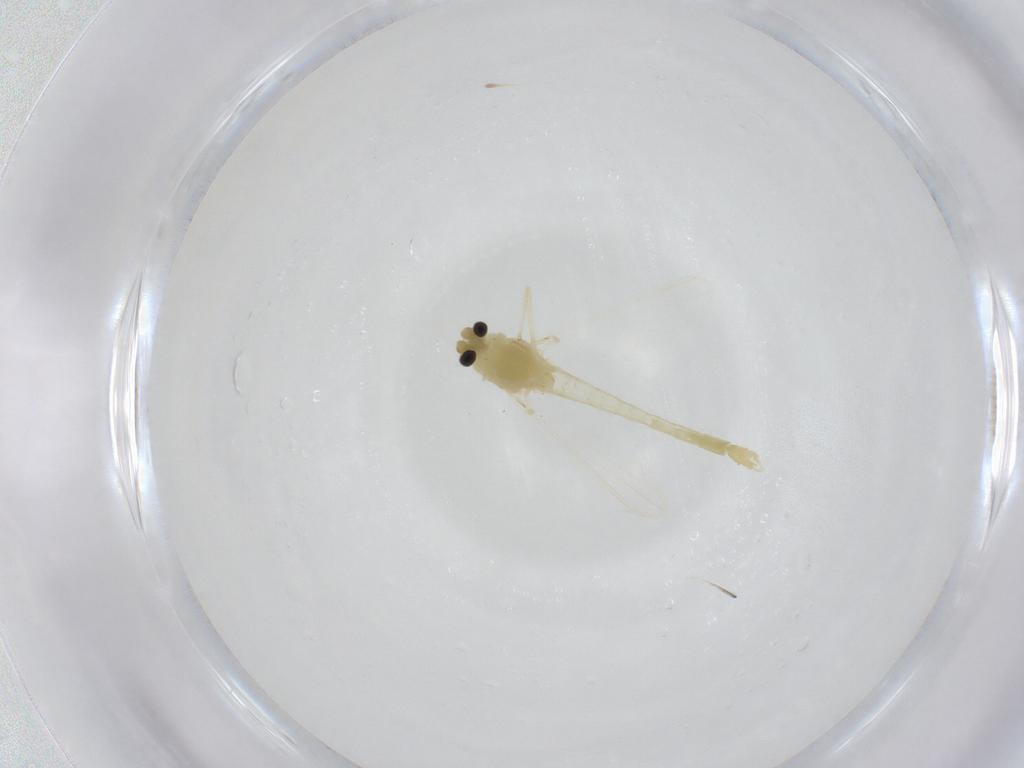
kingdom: Animalia
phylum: Arthropoda
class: Insecta
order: Diptera
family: Chironomidae
